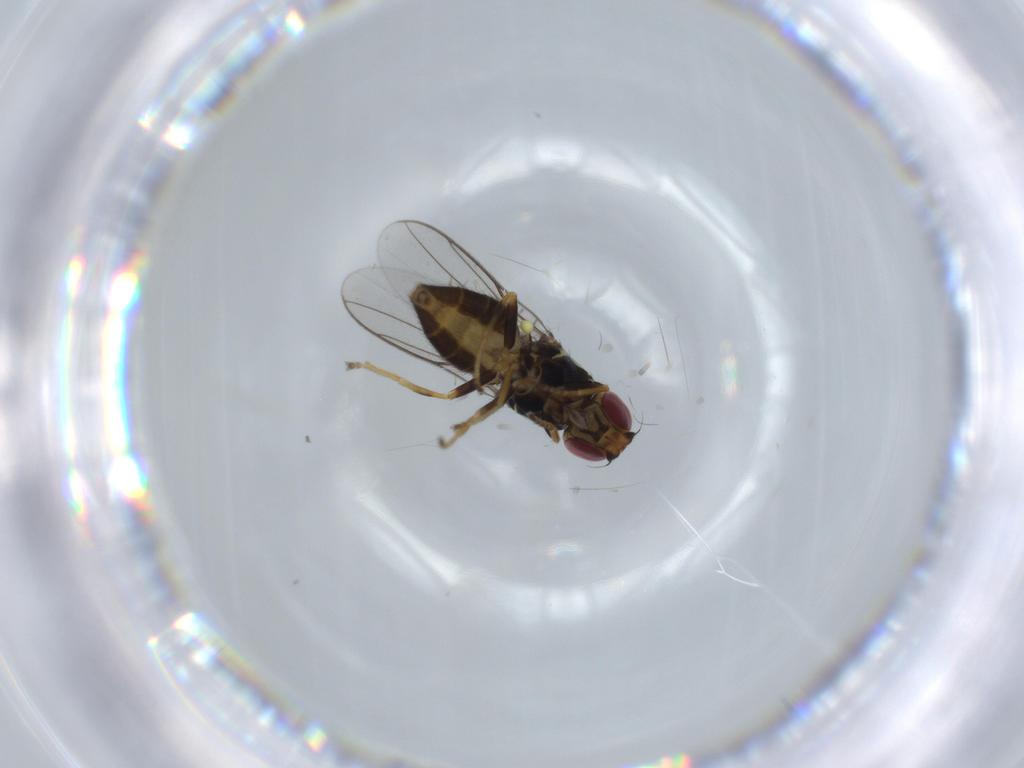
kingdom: Animalia
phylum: Arthropoda
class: Insecta
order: Diptera
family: Chloropidae
